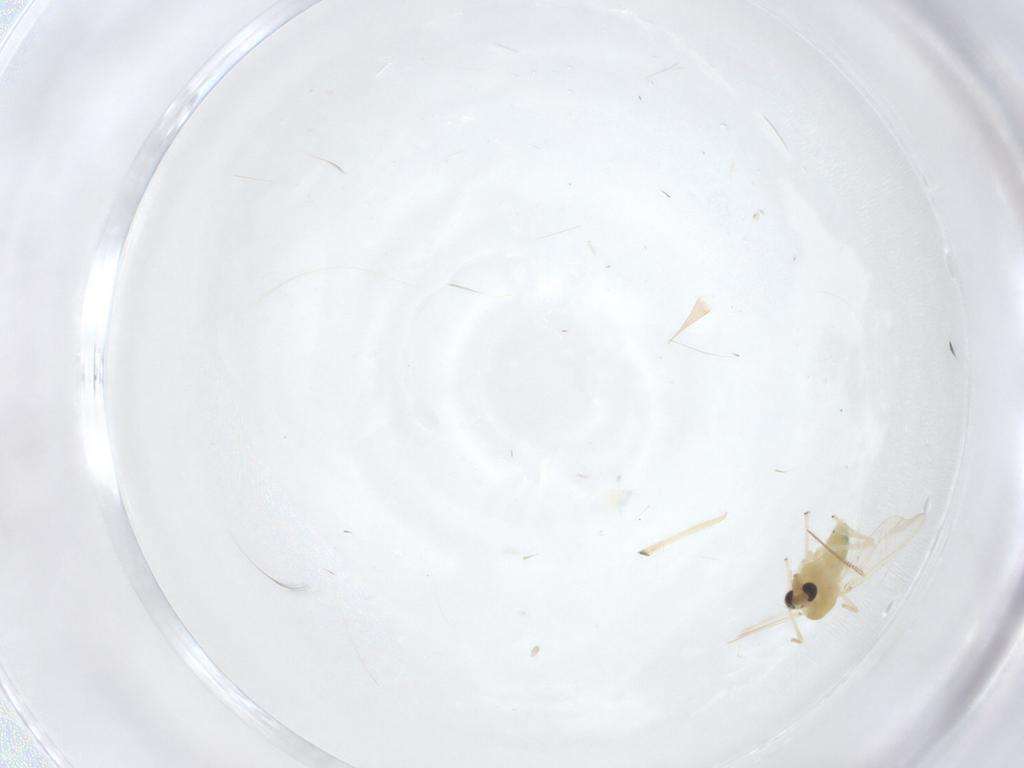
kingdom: Animalia
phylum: Arthropoda
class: Insecta
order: Diptera
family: Chironomidae
